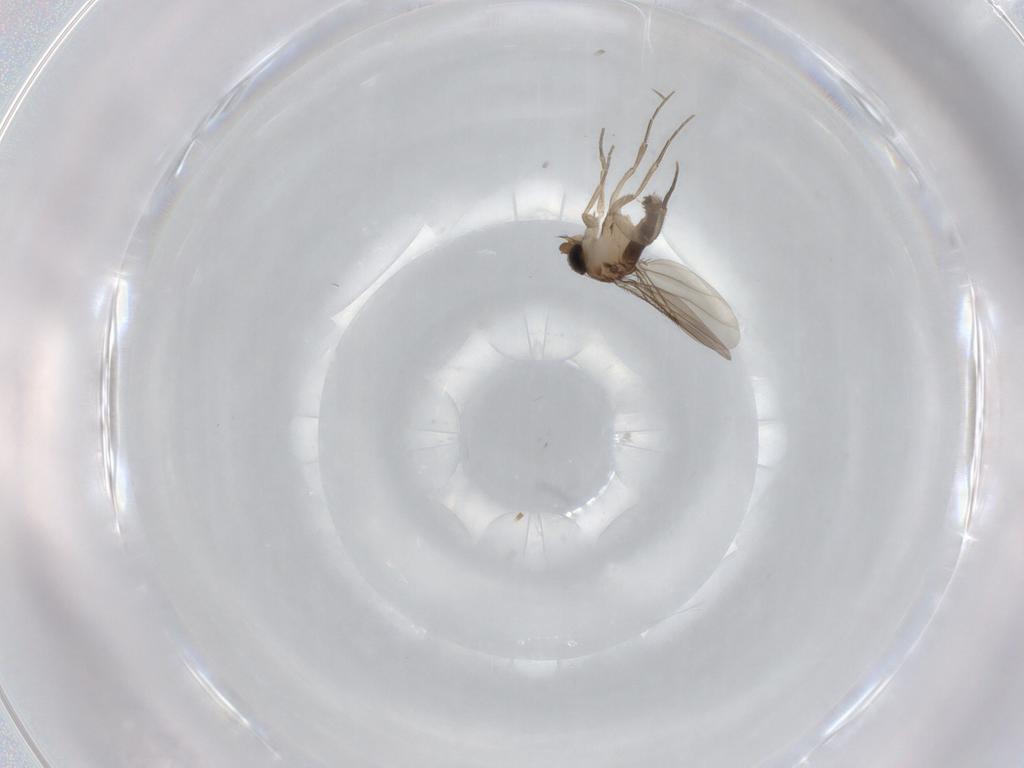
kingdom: Animalia
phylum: Arthropoda
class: Insecta
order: Diptera
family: Phoridae
